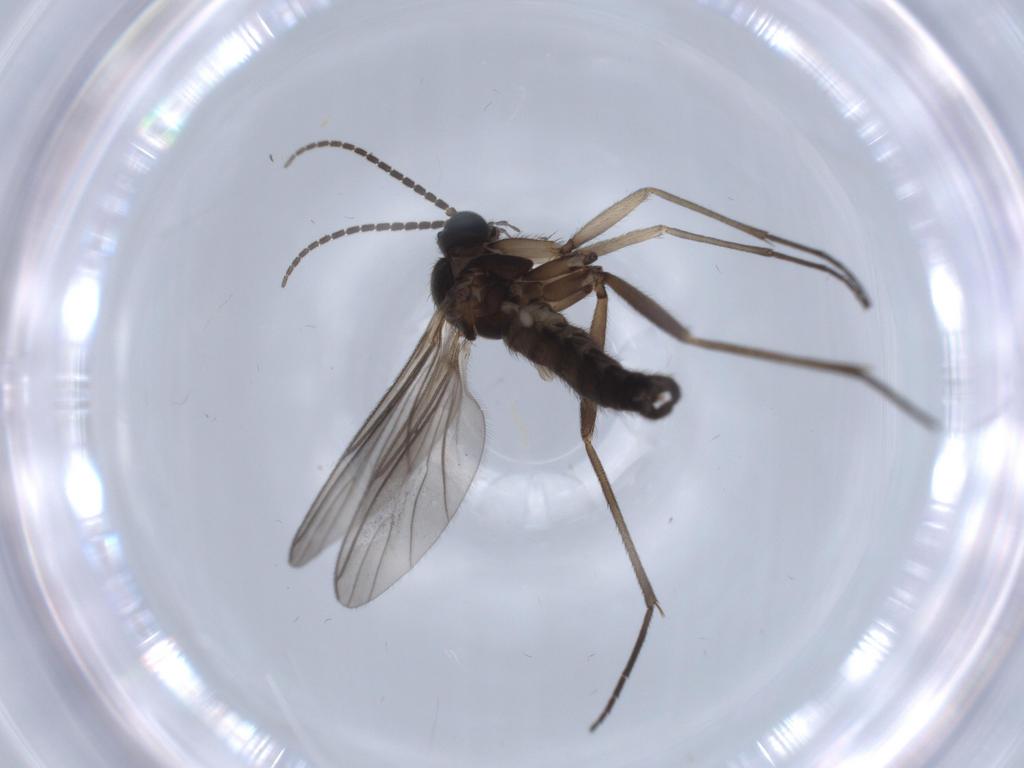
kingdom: Animalia
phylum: Arthropoda
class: Insecta
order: Diptera
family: Sciaridae
